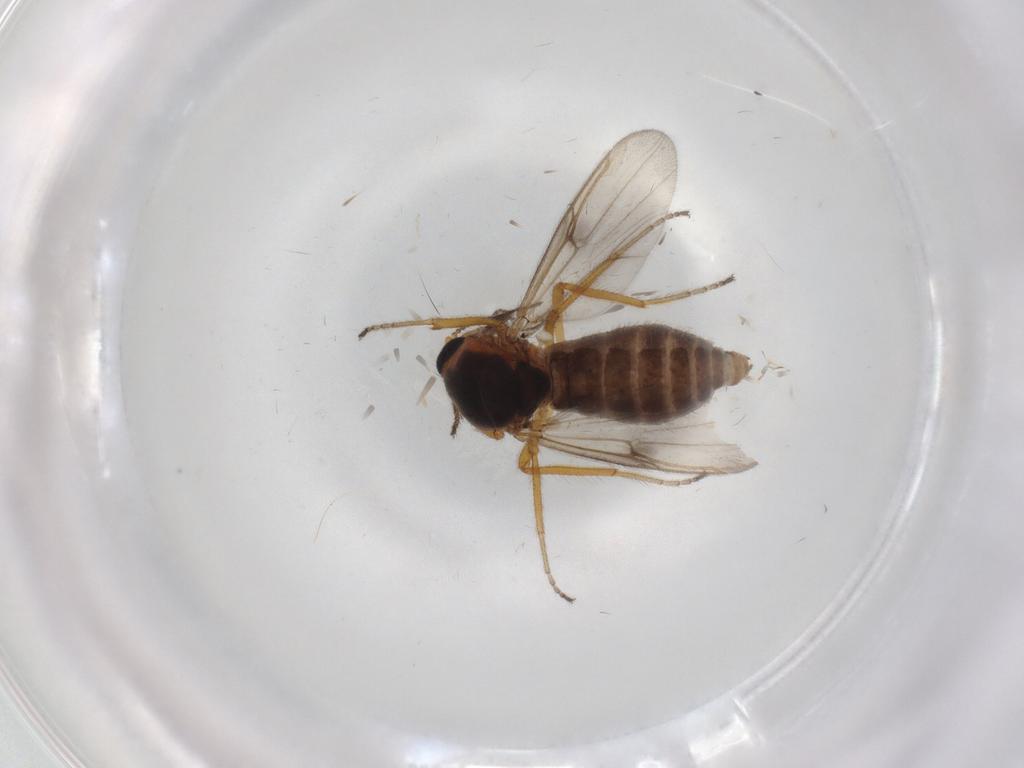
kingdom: Animalia
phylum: Arthropoda
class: Insecta
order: Diptera
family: Ceratopogonidae
